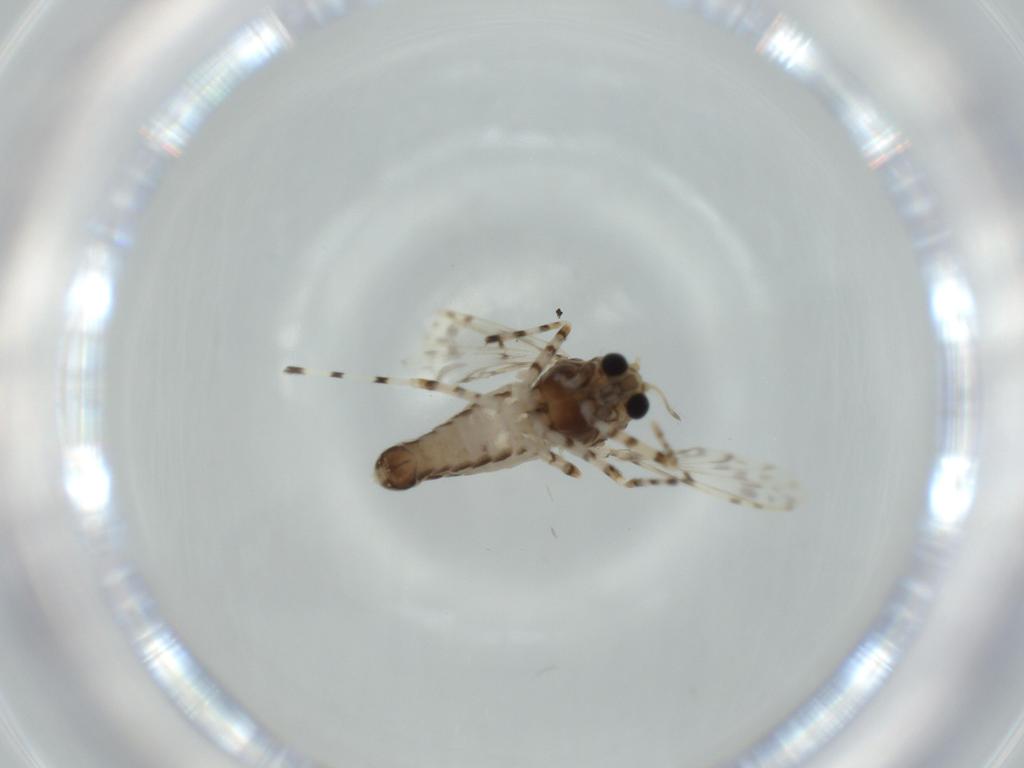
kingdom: Animalia
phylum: Arthropoda
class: Insecta
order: Diptera
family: Chironomidae
